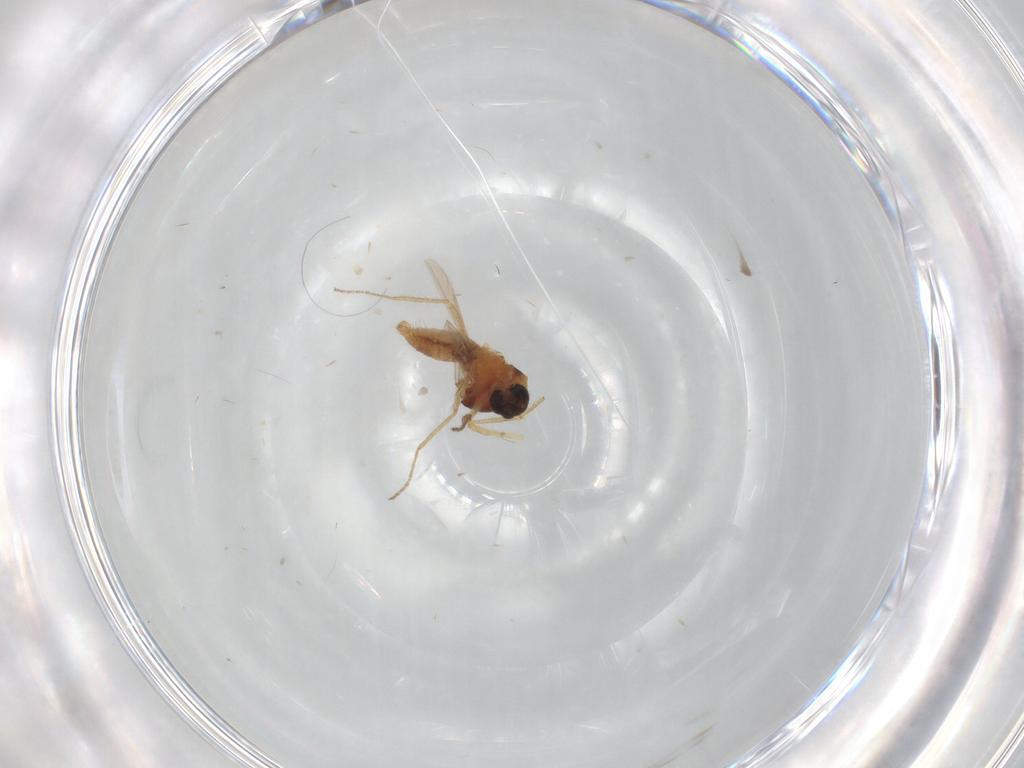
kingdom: Animalia
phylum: Arthropoda
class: Insecta
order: Diptera
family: Ceratopogonidae
